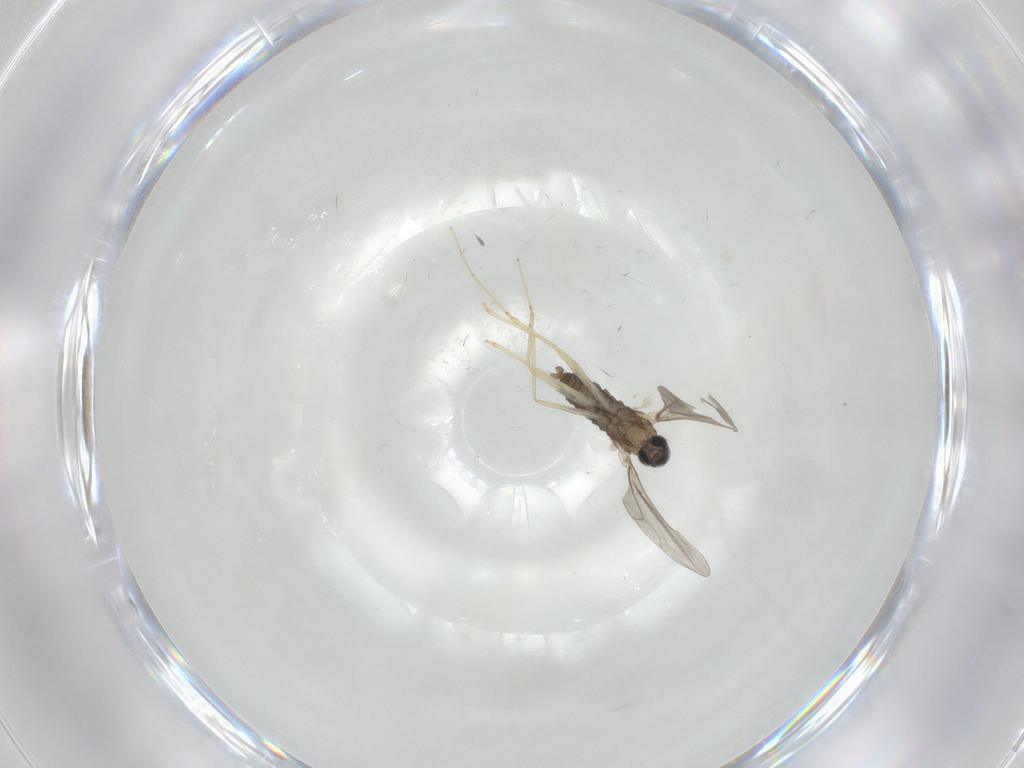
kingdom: Animalia
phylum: Arthropoda
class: Insecta
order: Diptera
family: Cecidomyiidae
